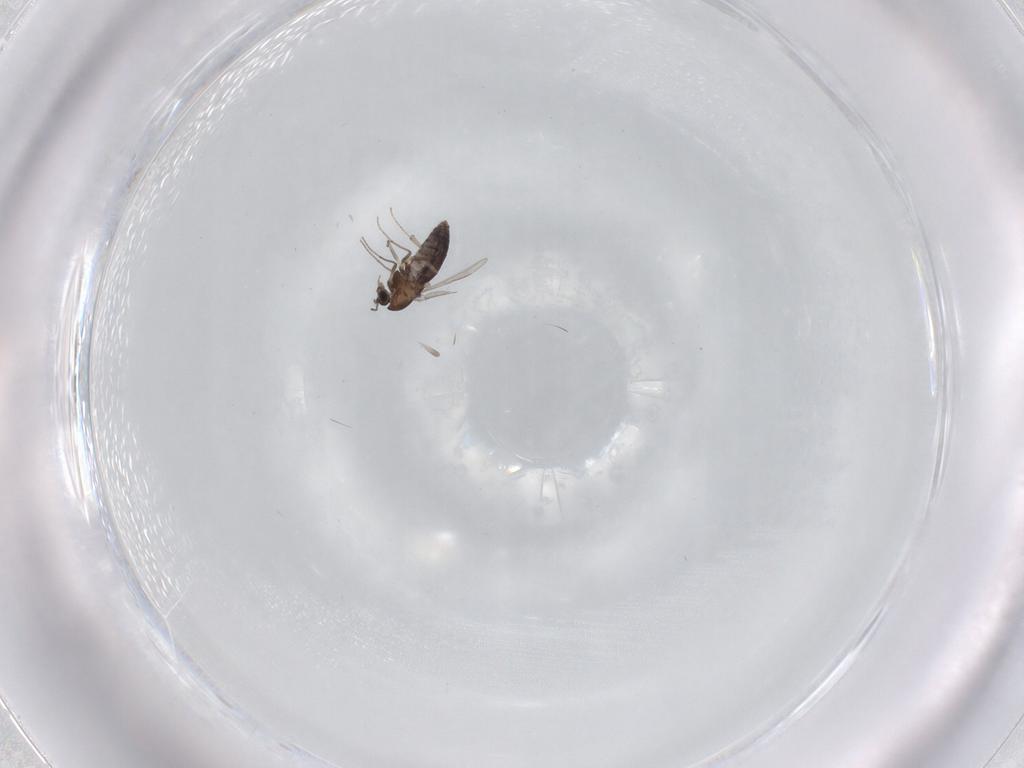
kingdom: Animalia
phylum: Arthropoda
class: Insecta
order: Diptera
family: Chironomidae
